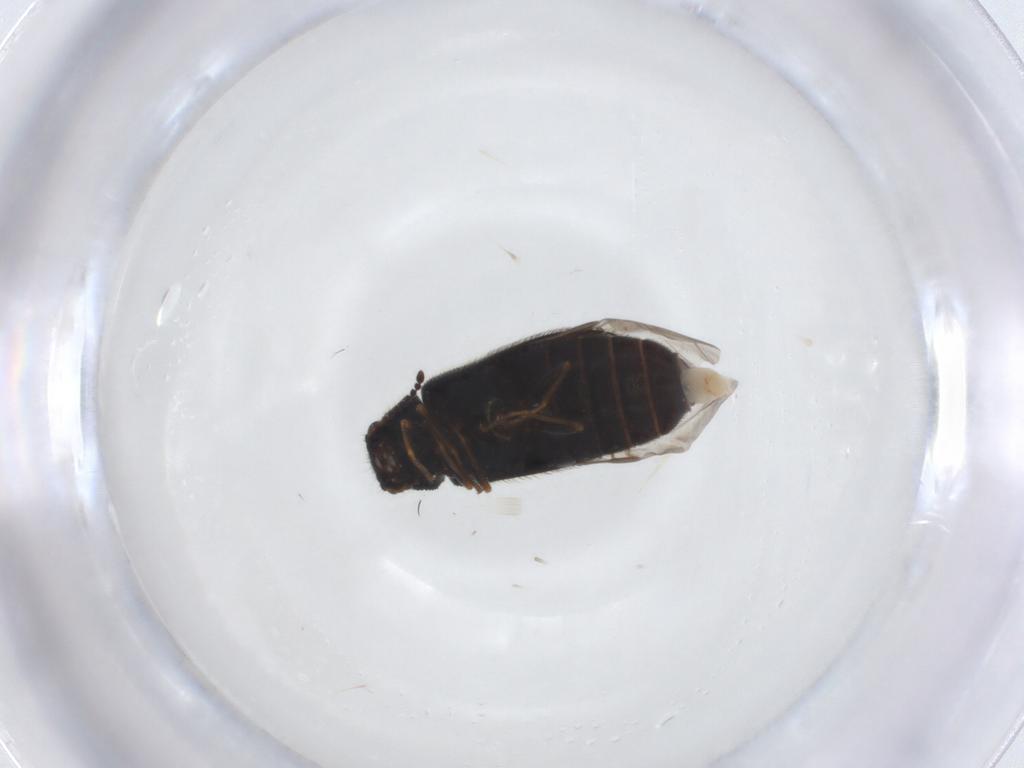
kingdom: Animalia
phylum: Arthropoda
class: Insecta
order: Coleoptera
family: Melyridae
